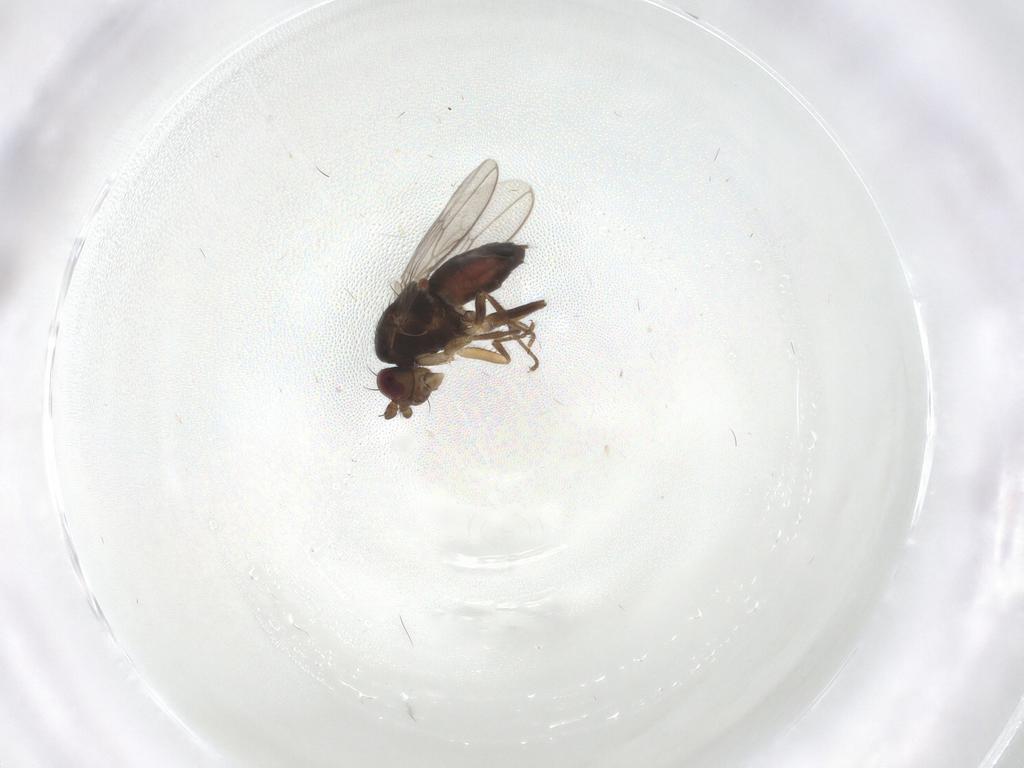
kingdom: Animalia
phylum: Arthropoda
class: Insecta
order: Diptera
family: Sphaeroceridae
